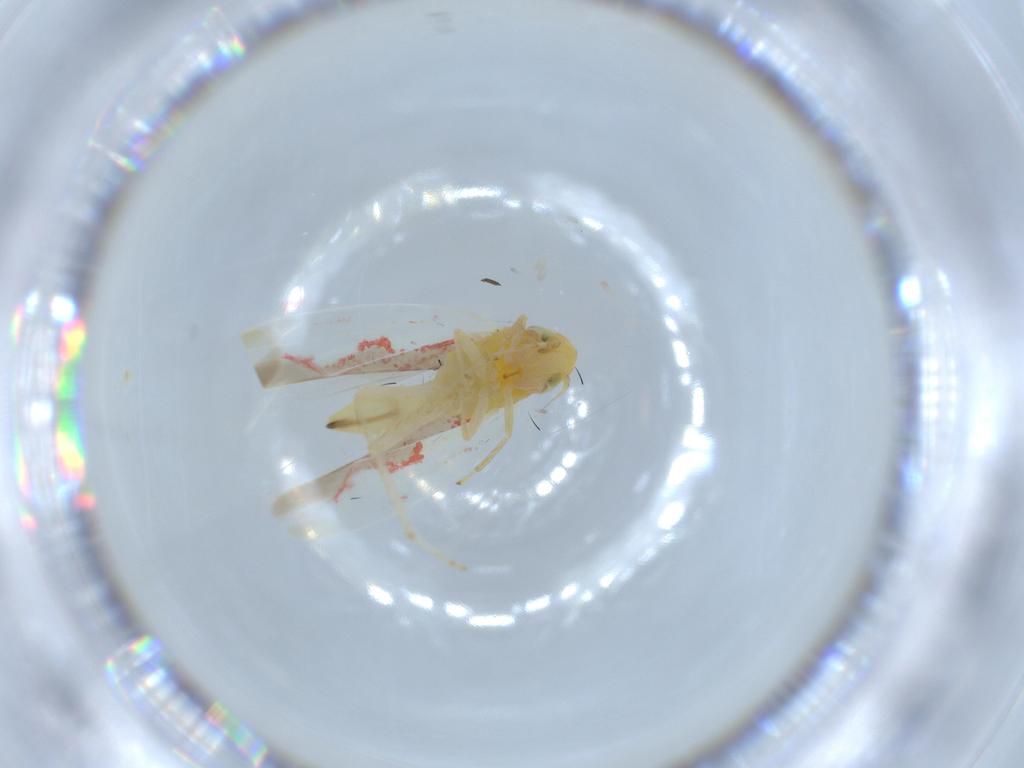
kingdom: Animalia
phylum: Arthropoda
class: Insecta
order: Hemiptera
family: Cicadellidae
